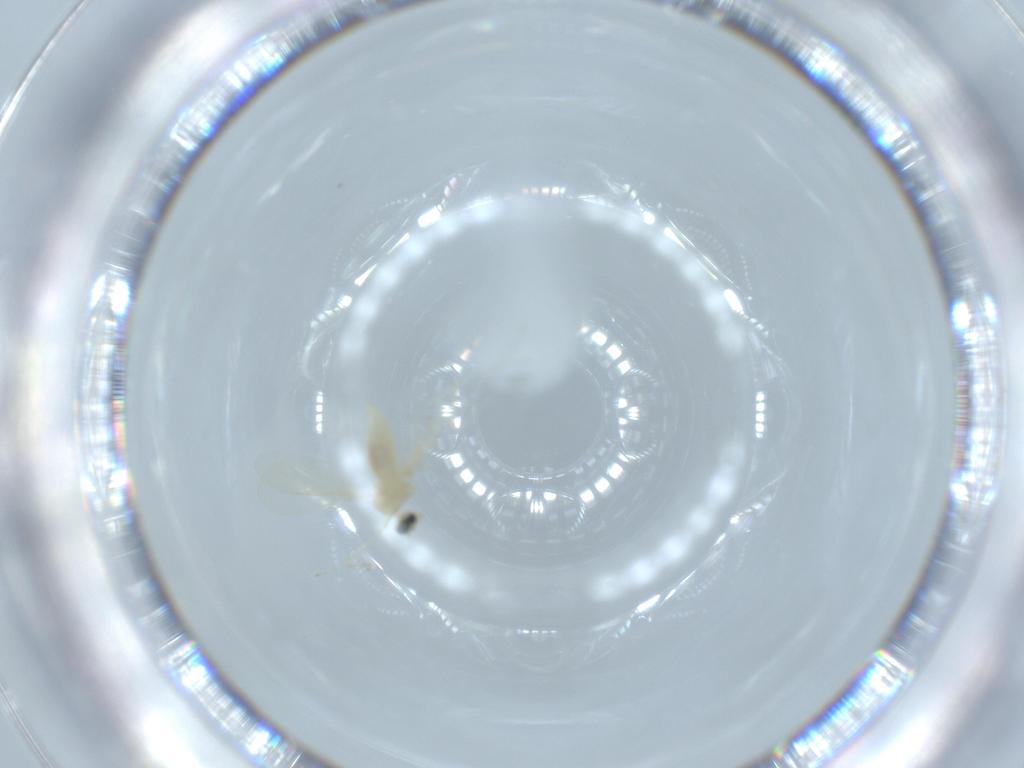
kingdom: Animalia
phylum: Arthropoda
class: Insecta
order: Diptera
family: Cecidomyiidae
